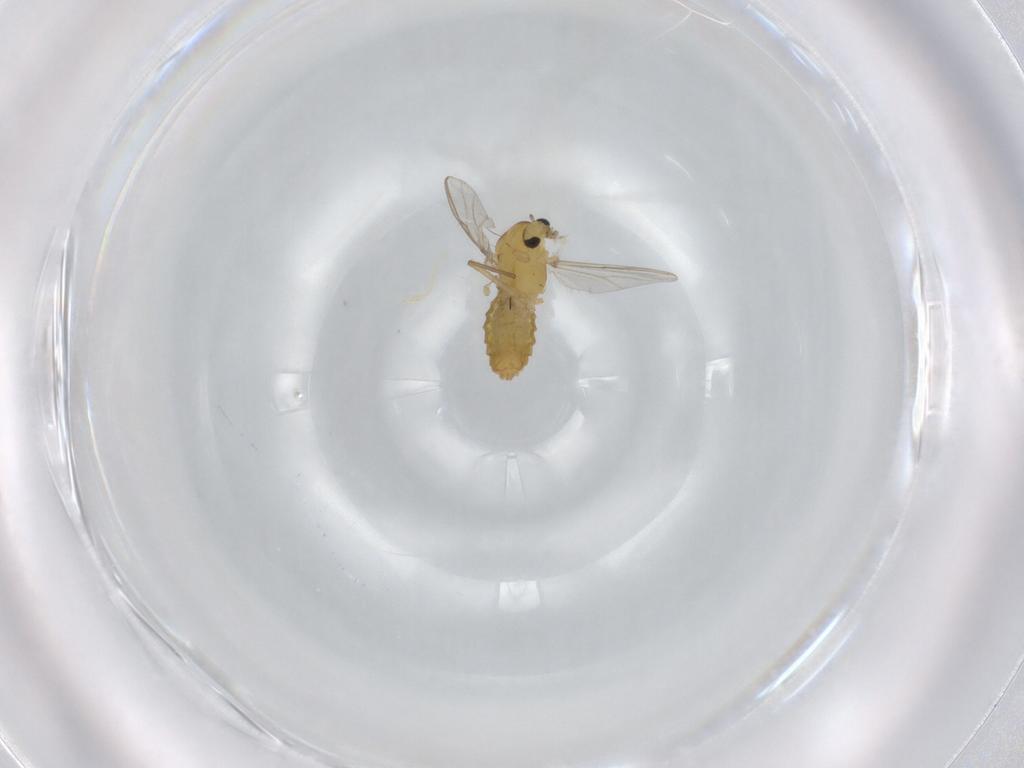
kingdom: Animalia
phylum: Arthropoda
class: Insecta
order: Diptera
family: Chironomidae
